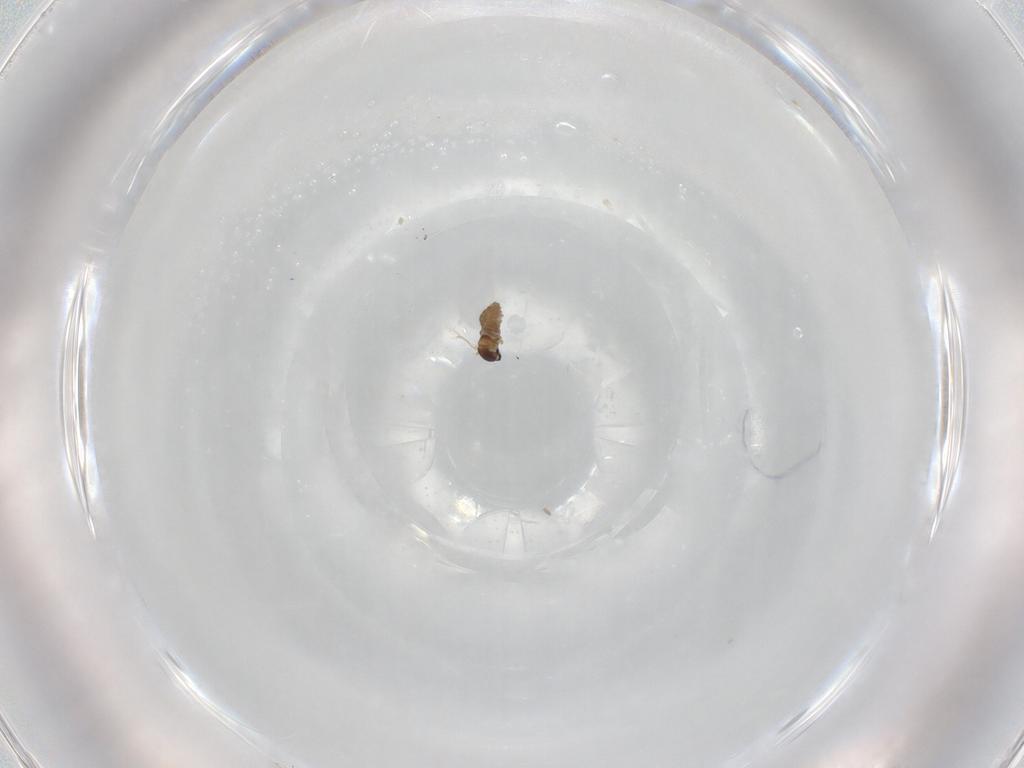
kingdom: Animalia
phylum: Arthropoda
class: Insecta
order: Diptera
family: Cecidomyiidae
